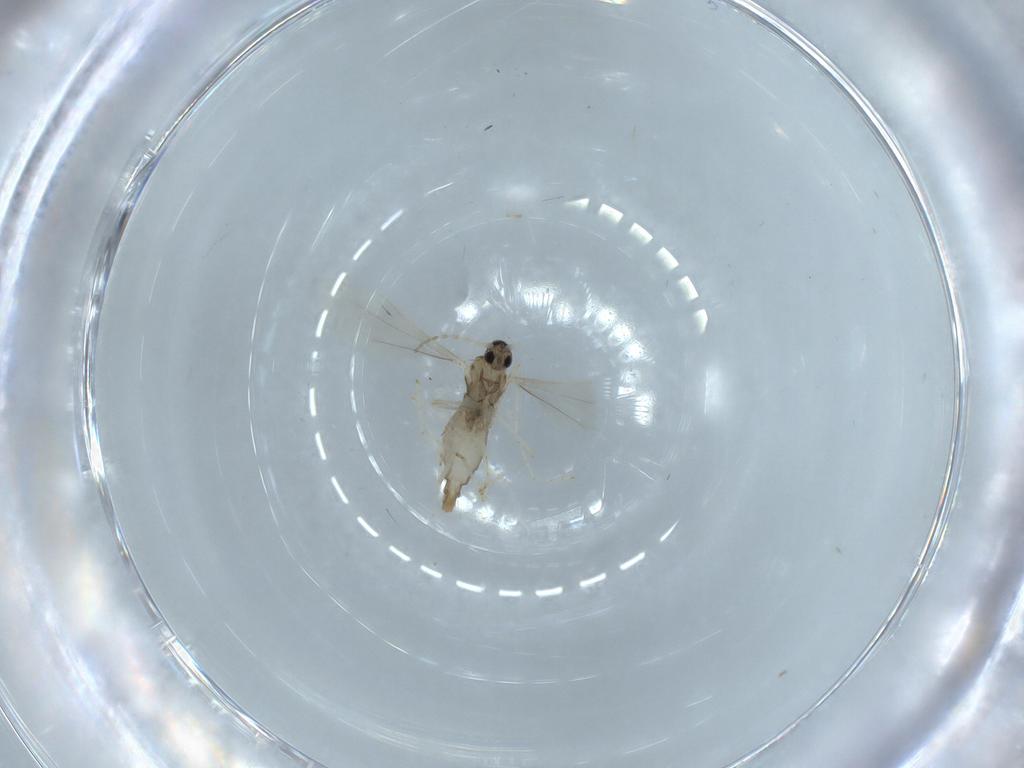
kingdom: Animalia
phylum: Arthropoda
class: Insecta
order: Diptera
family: Cecidomyiidae
